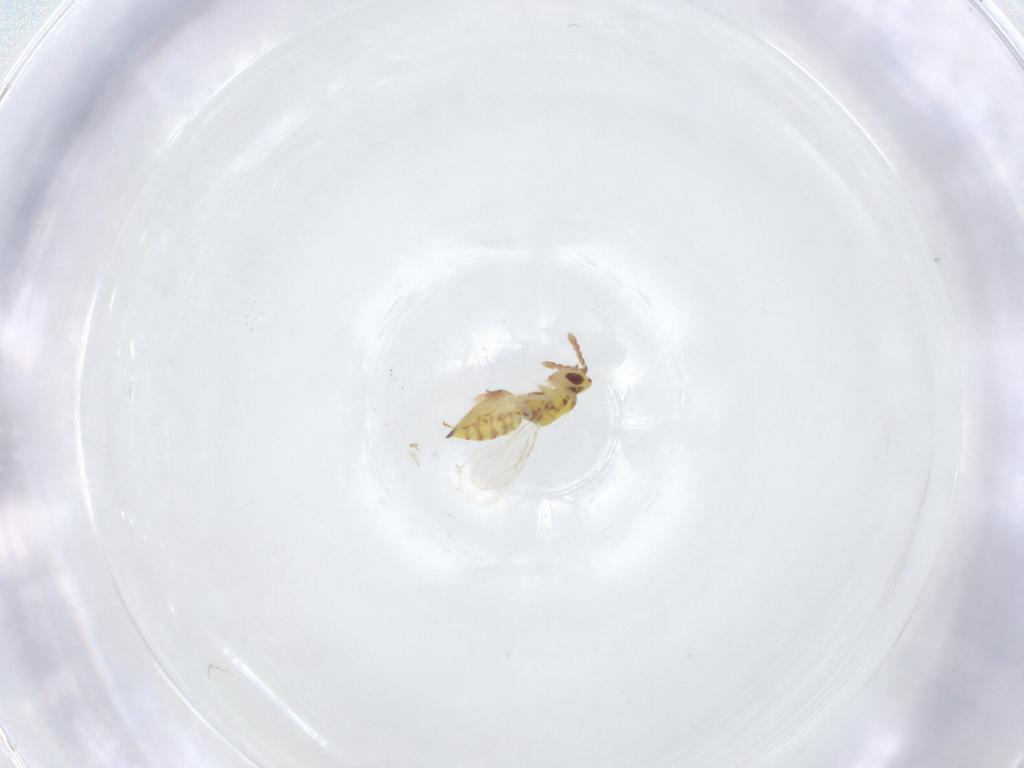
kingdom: Animalia
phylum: Arthropoda
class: Insecta
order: Hymenoptera
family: Eulophidae
